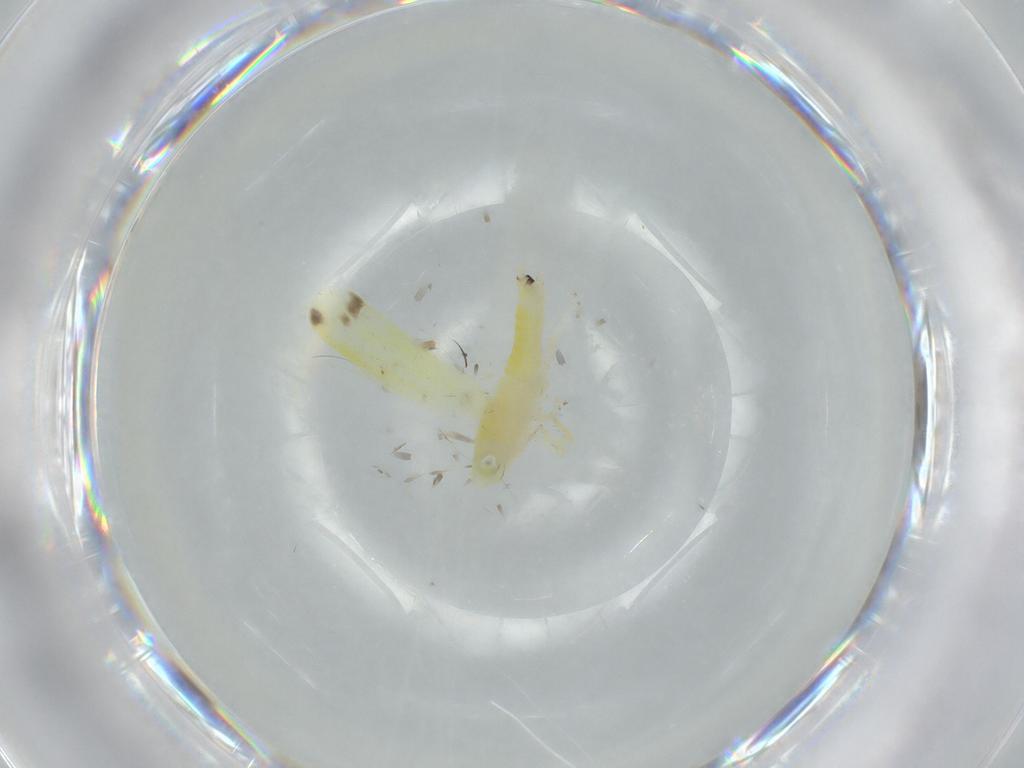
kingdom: Animalia
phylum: Arthropoda
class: Insecta
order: Hemiptera
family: Cicadellidae
